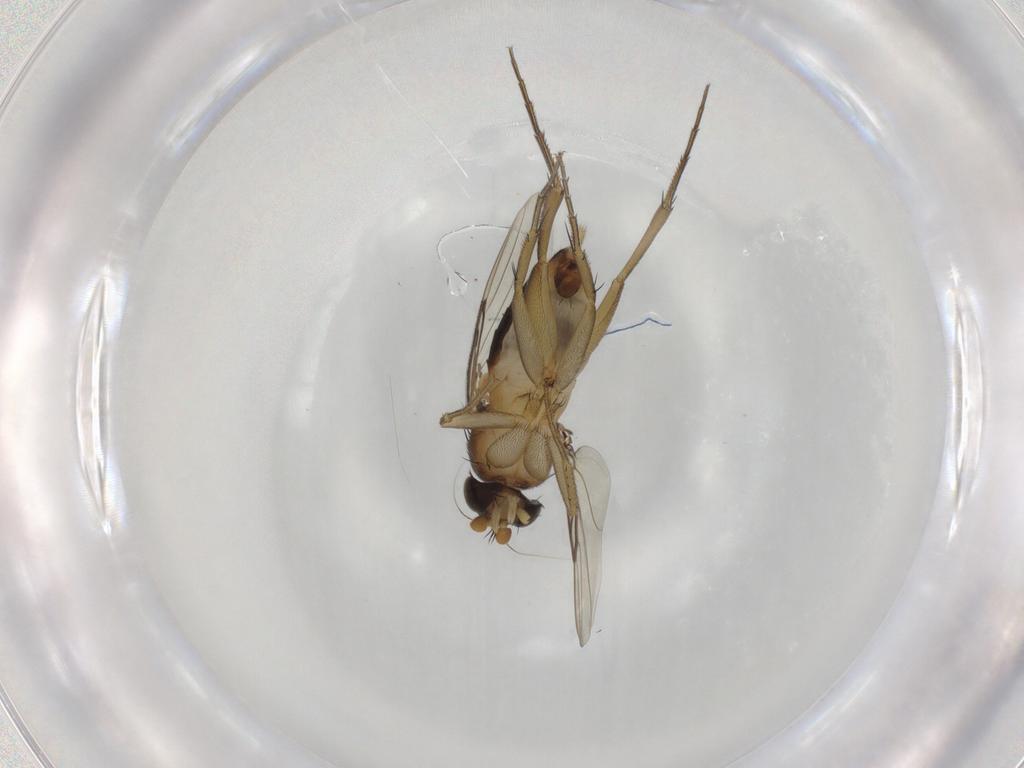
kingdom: Animalia
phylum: Arthropoda
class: Insecta
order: Diptera
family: Phoridae
